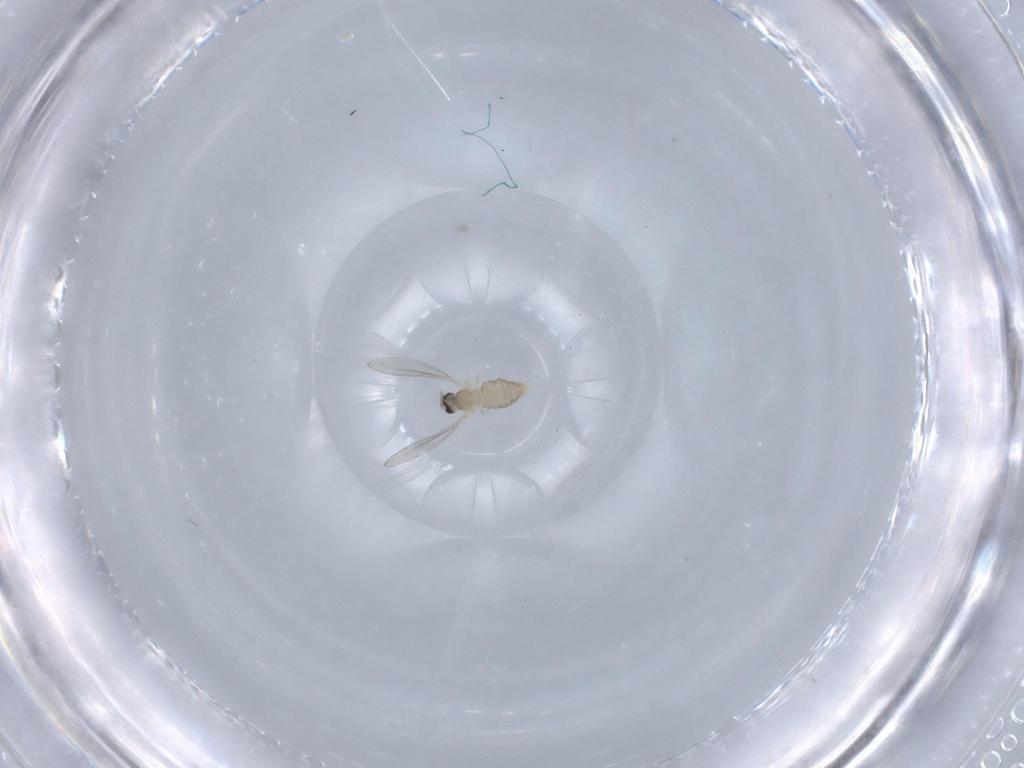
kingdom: Animalia
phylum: Arthropoda
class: Insecta
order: Diptera
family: Cecidomyiidae
